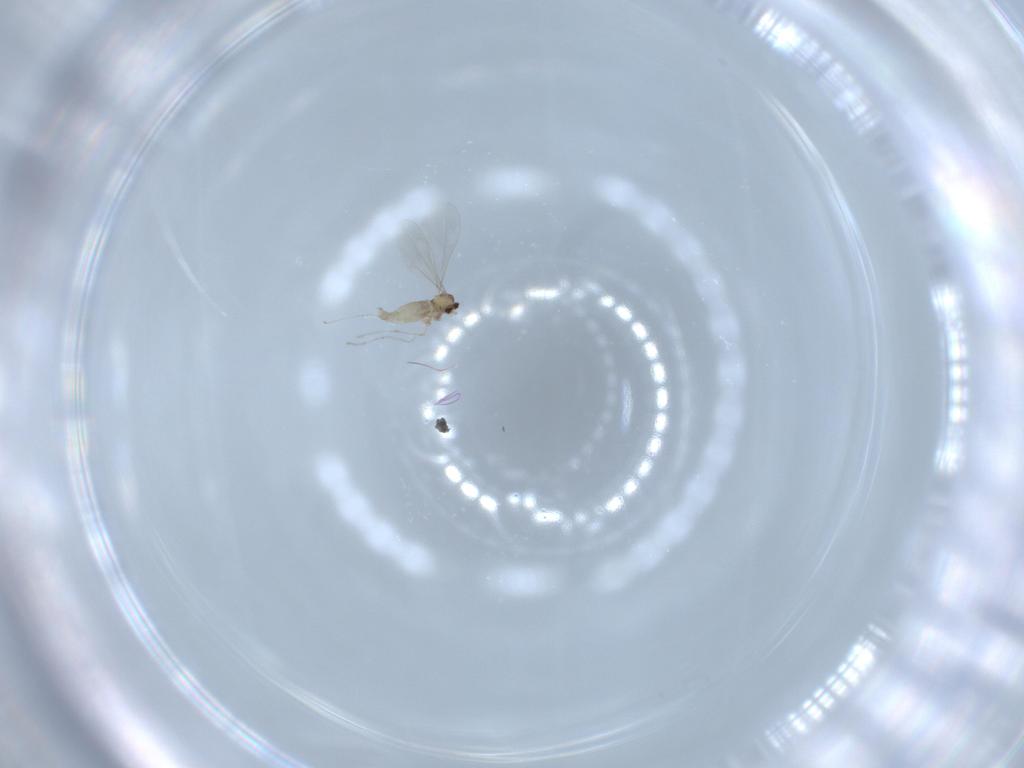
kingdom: Animalia
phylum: Arthropoda
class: Insecta
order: Diptera
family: Cecidomyiidae
